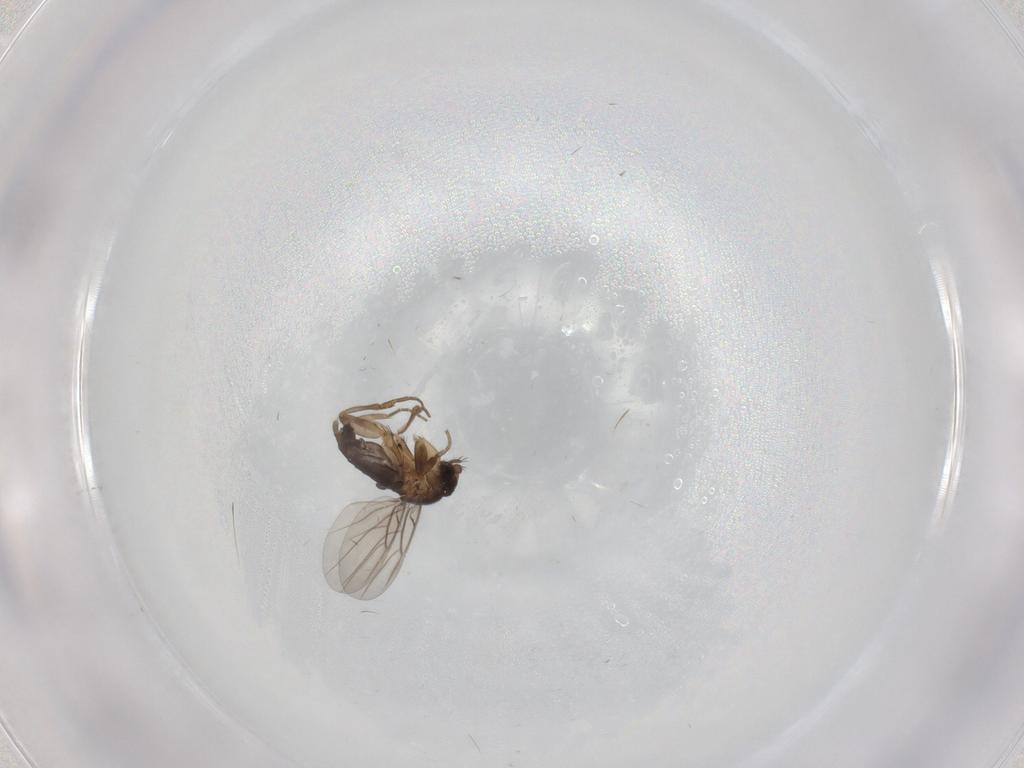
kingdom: Animalia
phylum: Arthropoda
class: Insecta
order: Diptera
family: Phoridae
